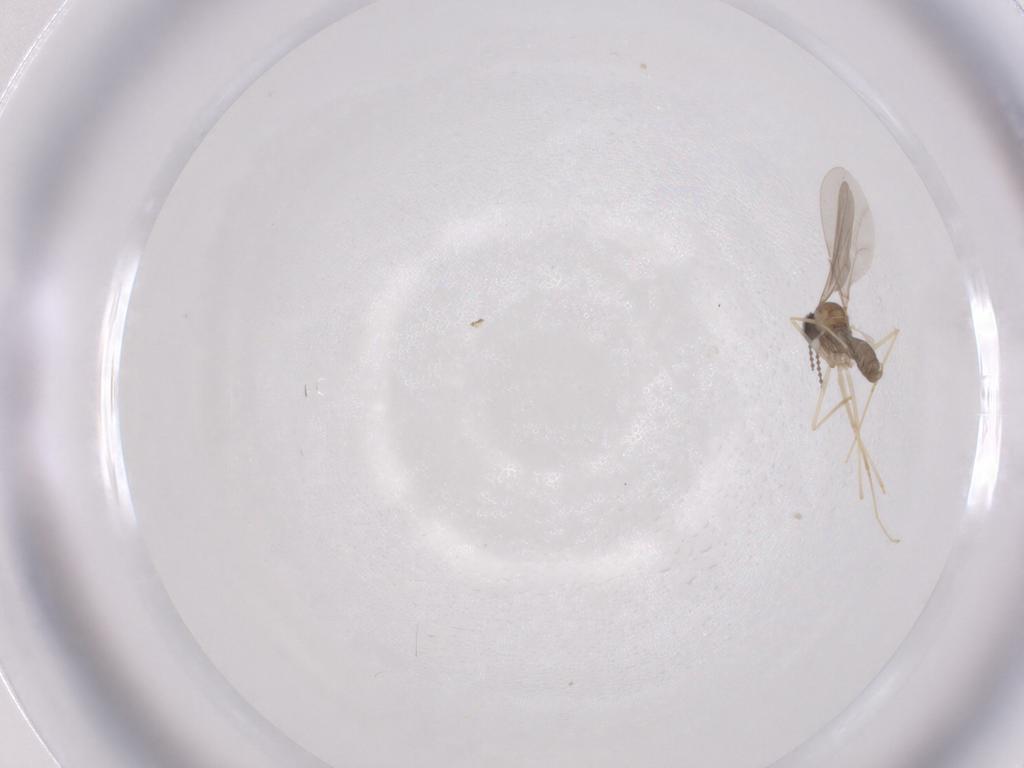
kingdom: Animalia
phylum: Arthropoda
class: Insecta
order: Diptera
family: Cecidomyiidae
